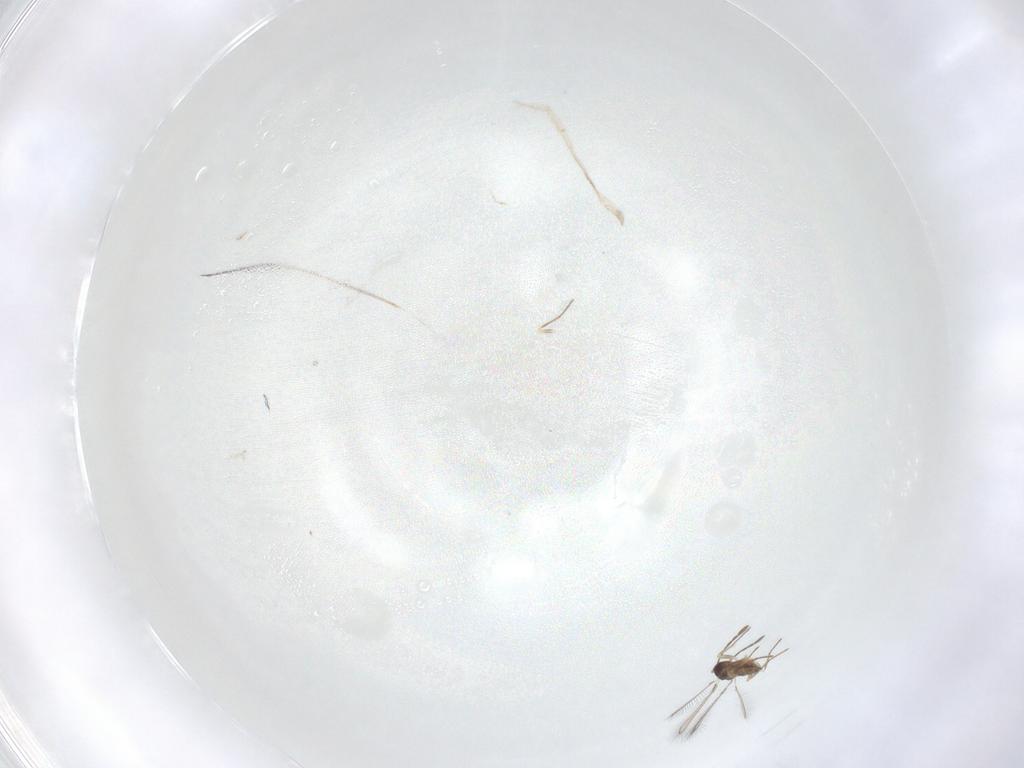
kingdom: Animalia
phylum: Arthropoda
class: Insecta
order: Hymenoptera
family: Mymaridae
